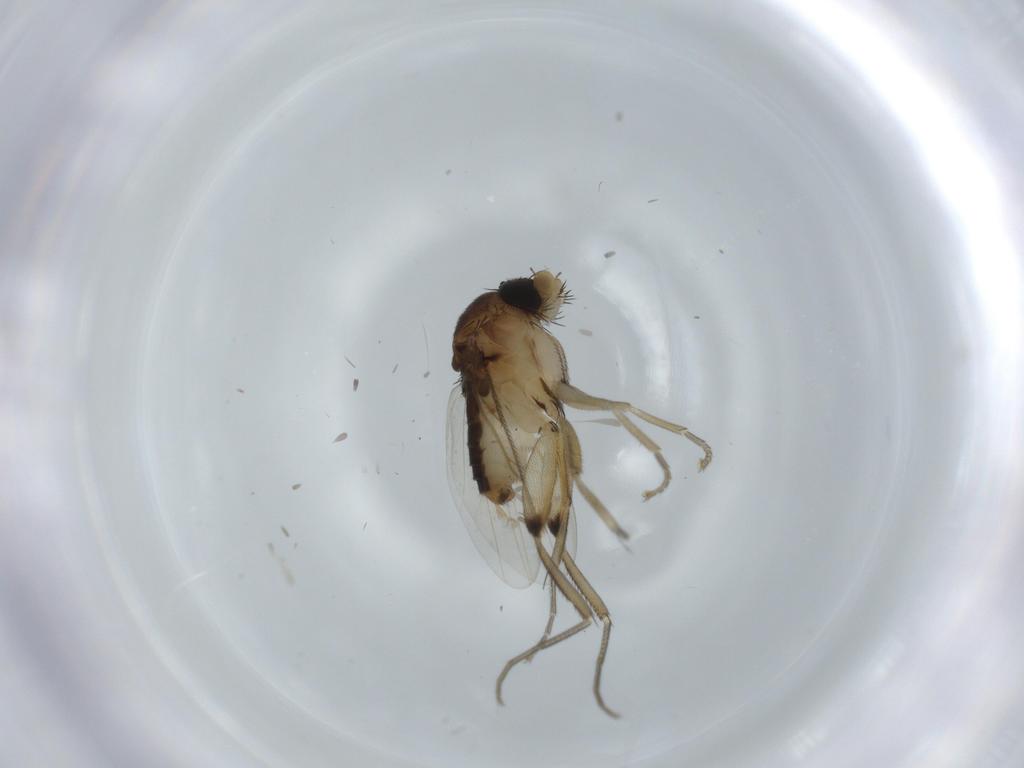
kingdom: Animalia
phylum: Arthropoda
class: Insecta
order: Diptera
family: Phoridae
